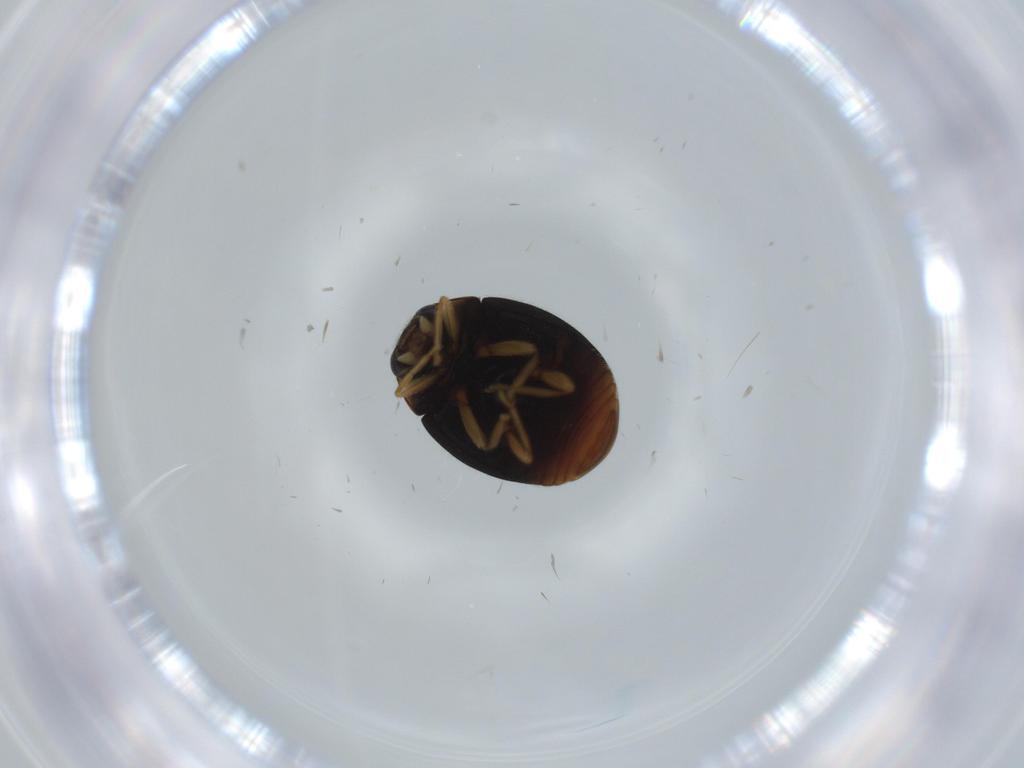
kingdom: Animalia
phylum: Arthropoda
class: Insecta
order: Coleoptera
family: Coccinellidae
